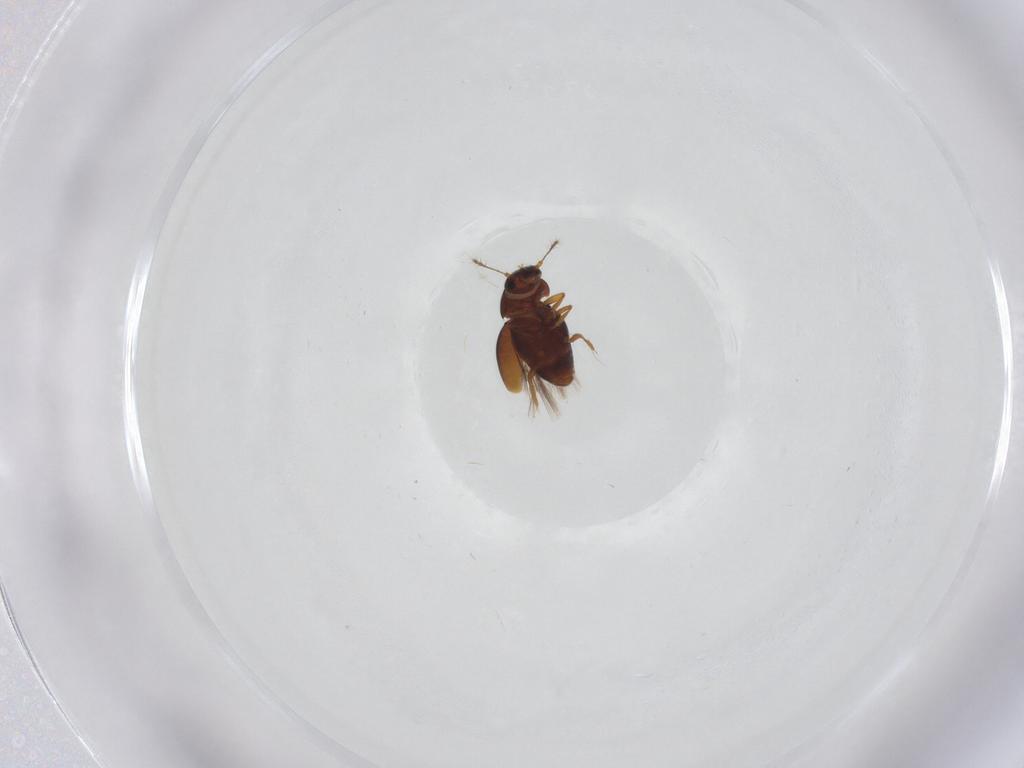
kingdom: Animalia
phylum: Arthropoda
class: Insecta
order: Coleoptera
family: Ptiliidae
